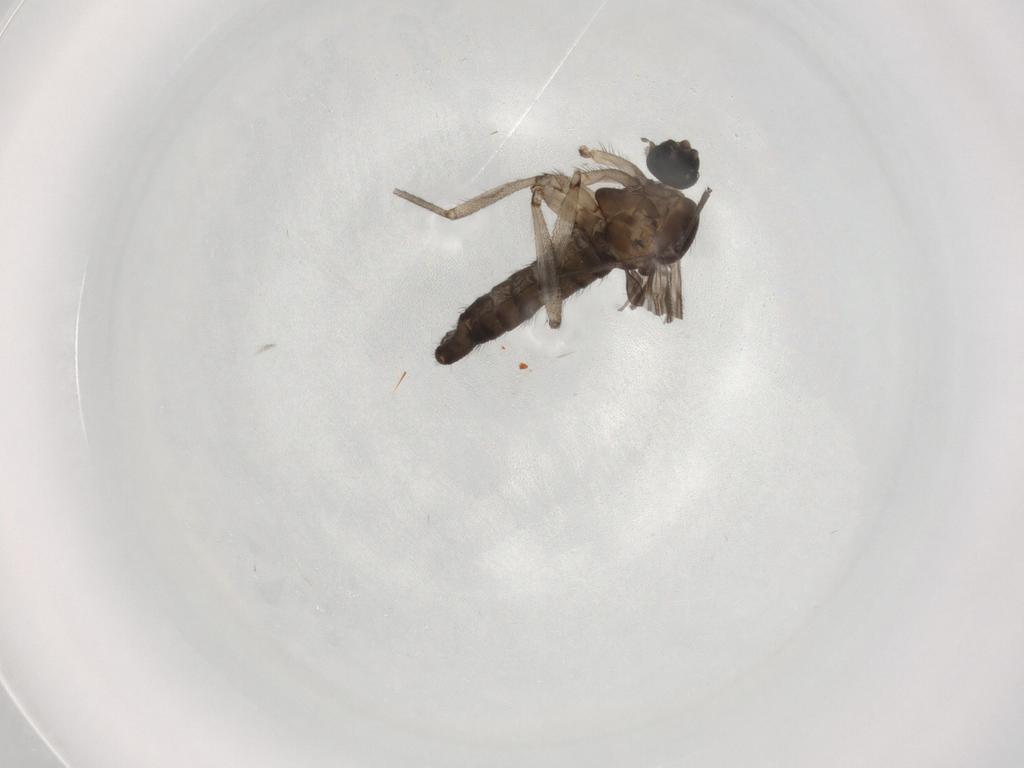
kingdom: Animalia
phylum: Arthropoda
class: Insecta
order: Diptera
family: Sciaridae
